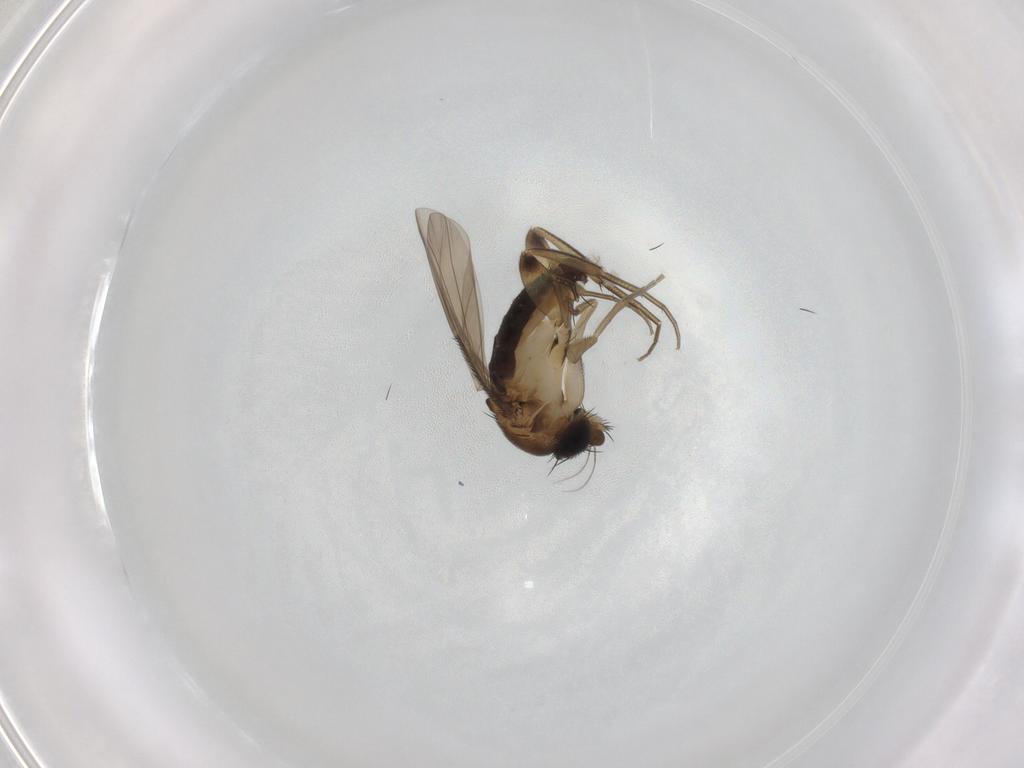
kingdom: Animalia
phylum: Arthropoda
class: Insecta
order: Diptera
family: Phoridae
